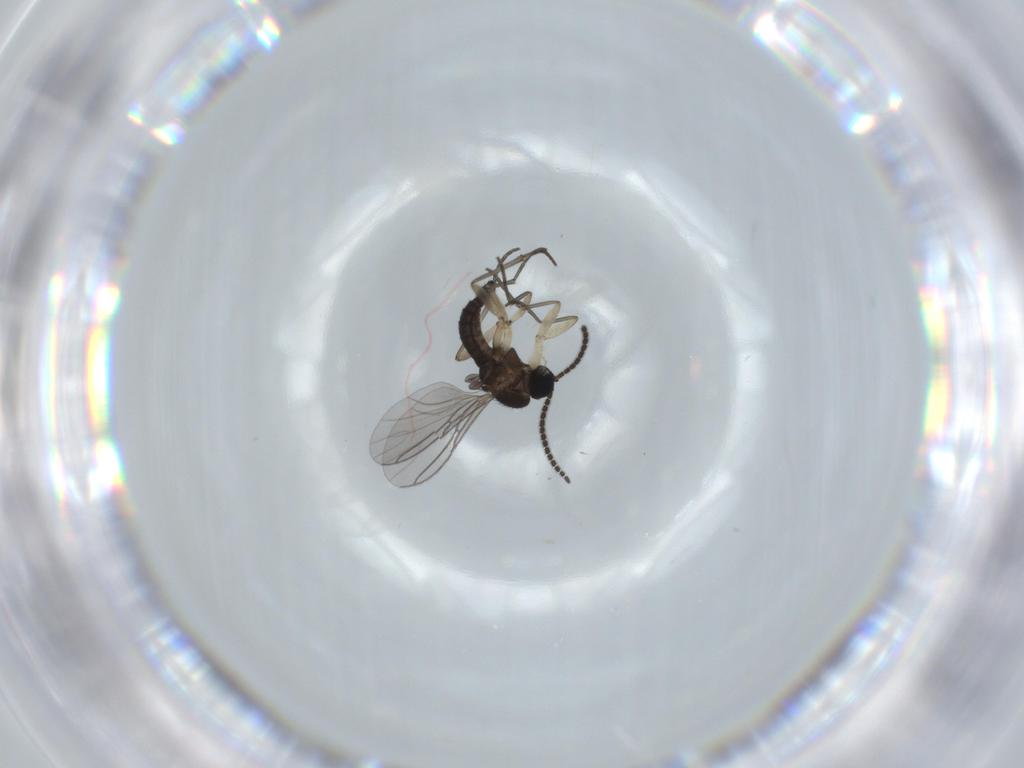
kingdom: Animalia
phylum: Arthropoda
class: Insecta
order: Diptera
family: Sciaridae
